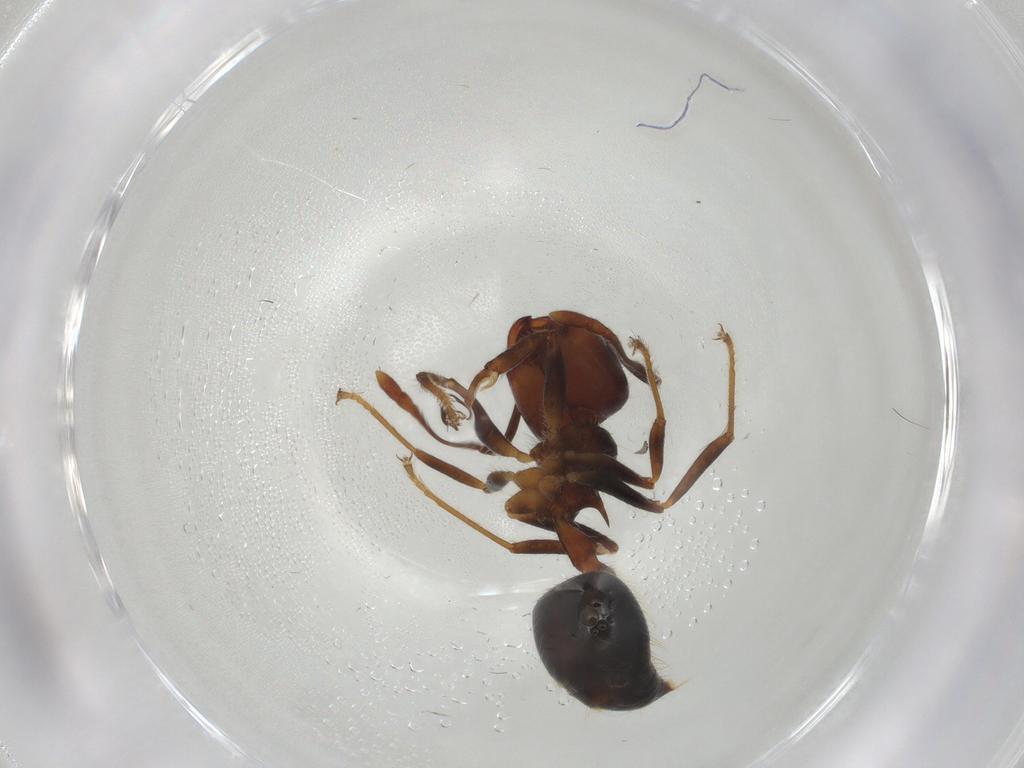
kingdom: Animalia
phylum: Arthropoda
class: Insecta
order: Hymenoptera
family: Formicidae
